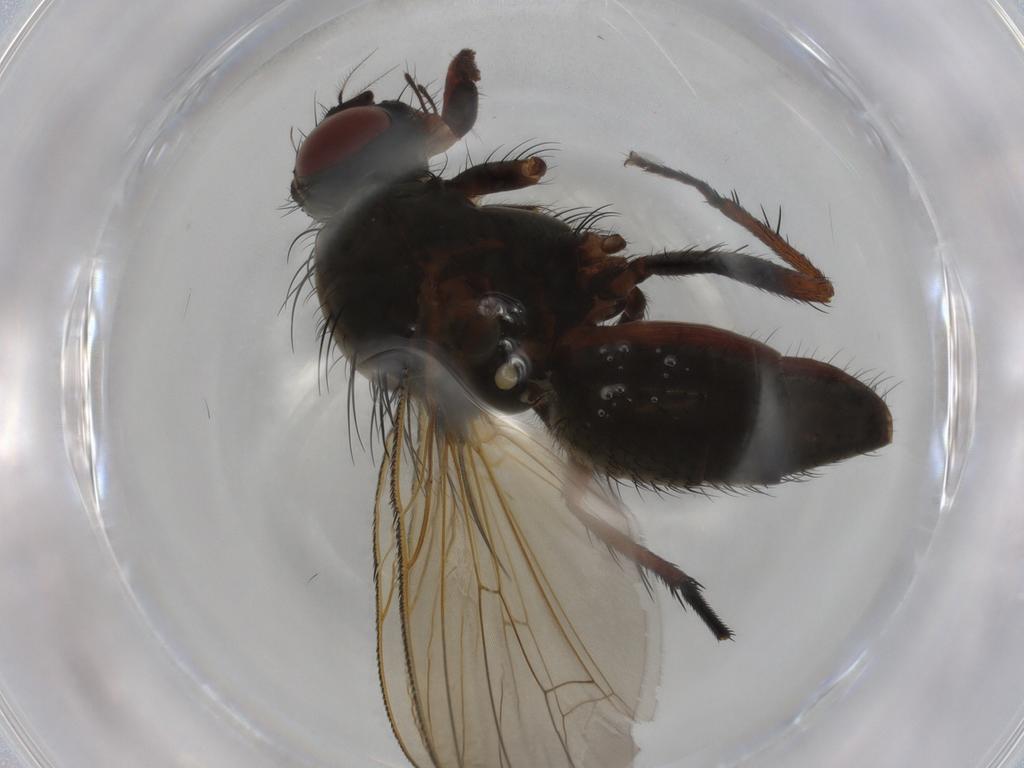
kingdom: Animalia
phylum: Arthropoda
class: Insecta
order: Diptera
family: Anthomyiidae
